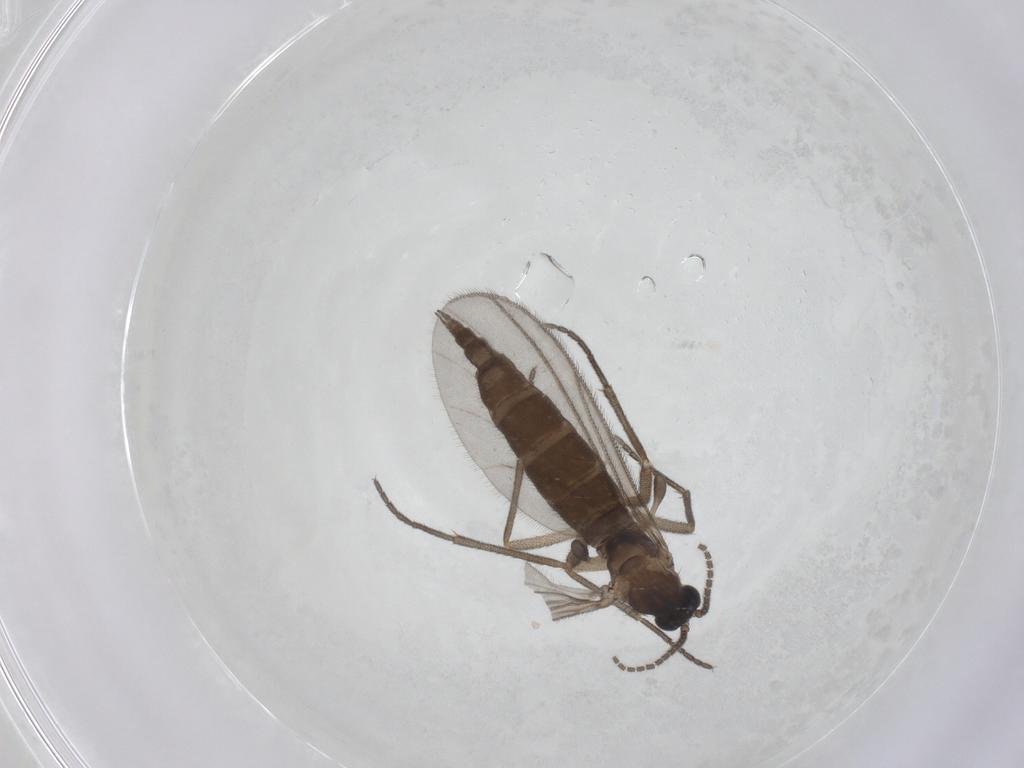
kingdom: Animalia
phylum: Arthropoda
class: Insecta
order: Diptera
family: Sciaridae
